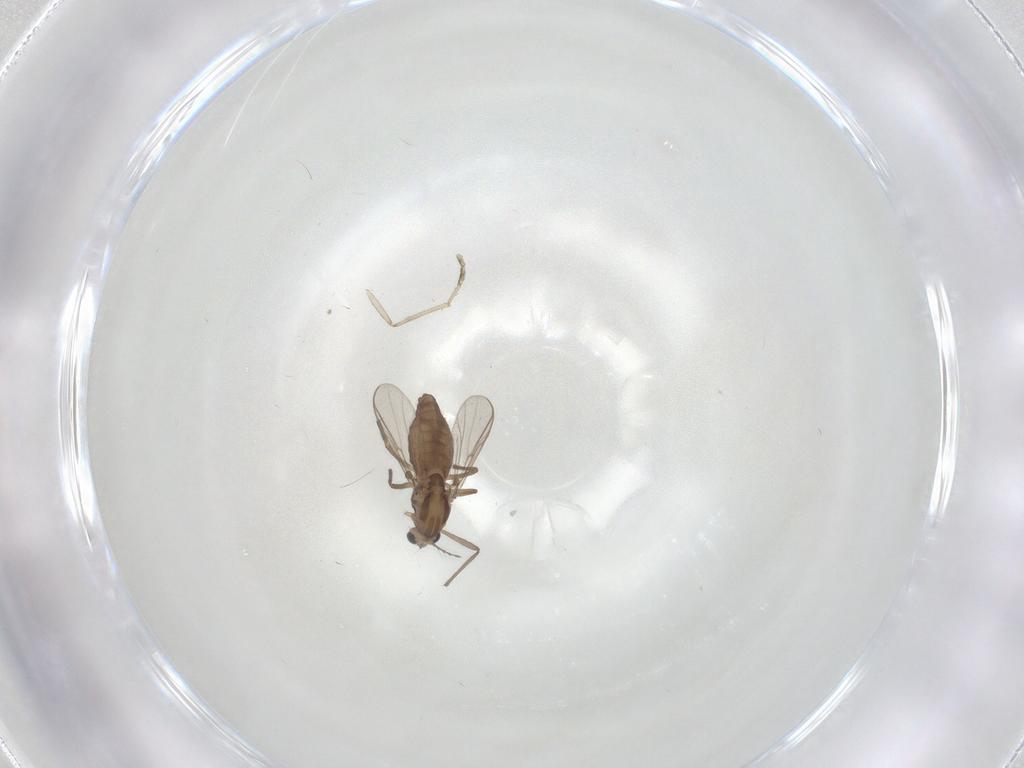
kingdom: Animalia
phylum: Arthropoda
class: Insecta
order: Diptera
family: Chironomidae
